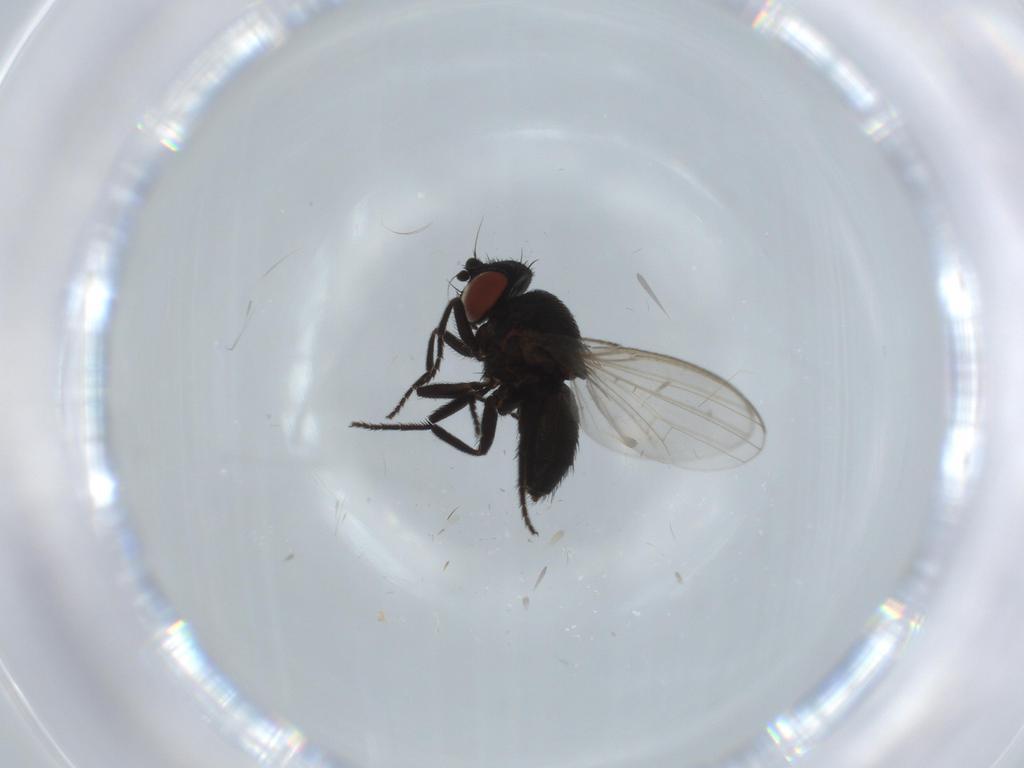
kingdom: Animalia
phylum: Arthropoda
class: Insecta
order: Diptera
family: Milichiidae
